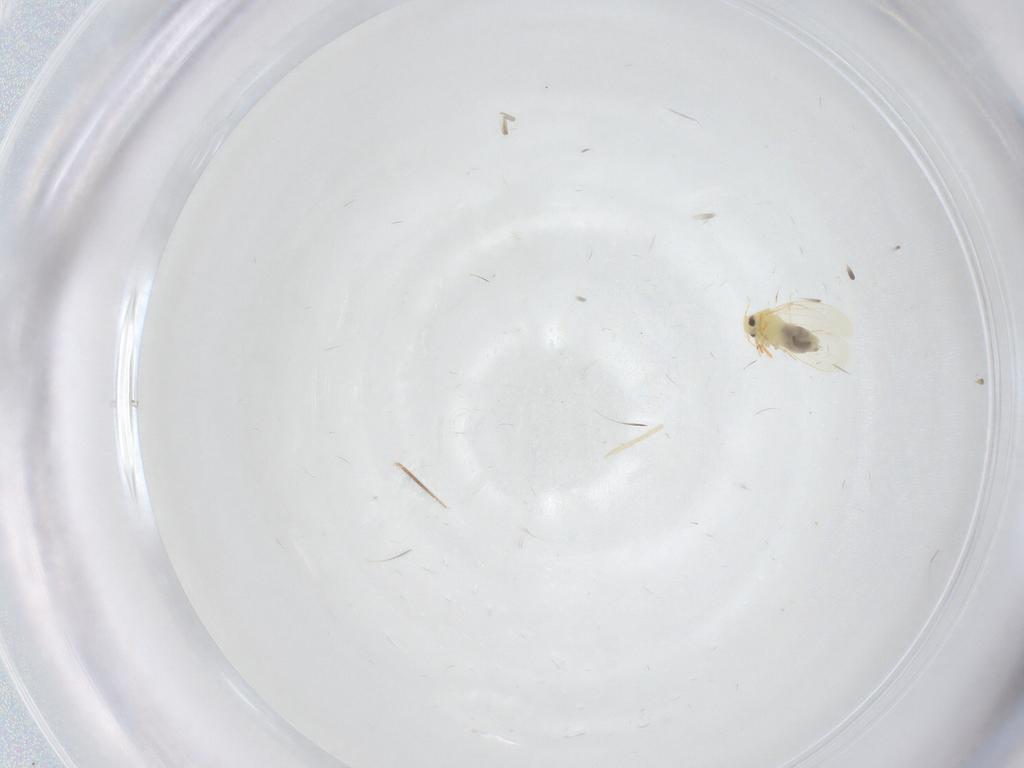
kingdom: Animalia
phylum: Arthropoda
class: Insecta
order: Hemiptera
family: Aleyrodidae
